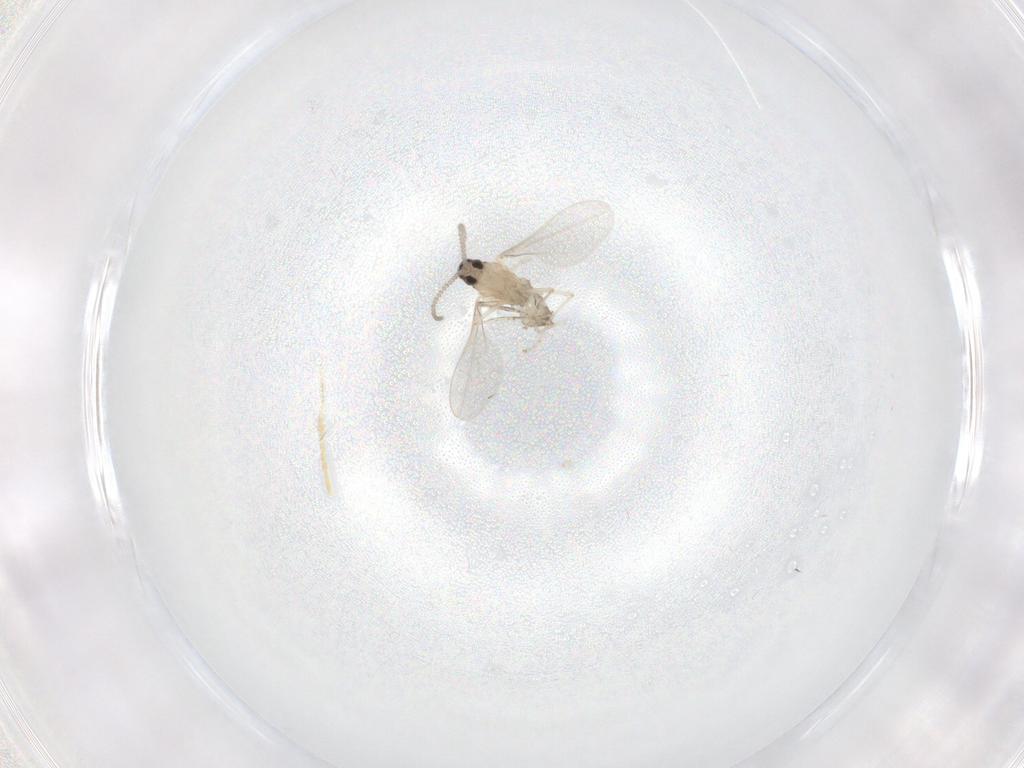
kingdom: Animalia
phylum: Arthropoda
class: Insecta
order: Diptera
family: Cecidomyiidae
